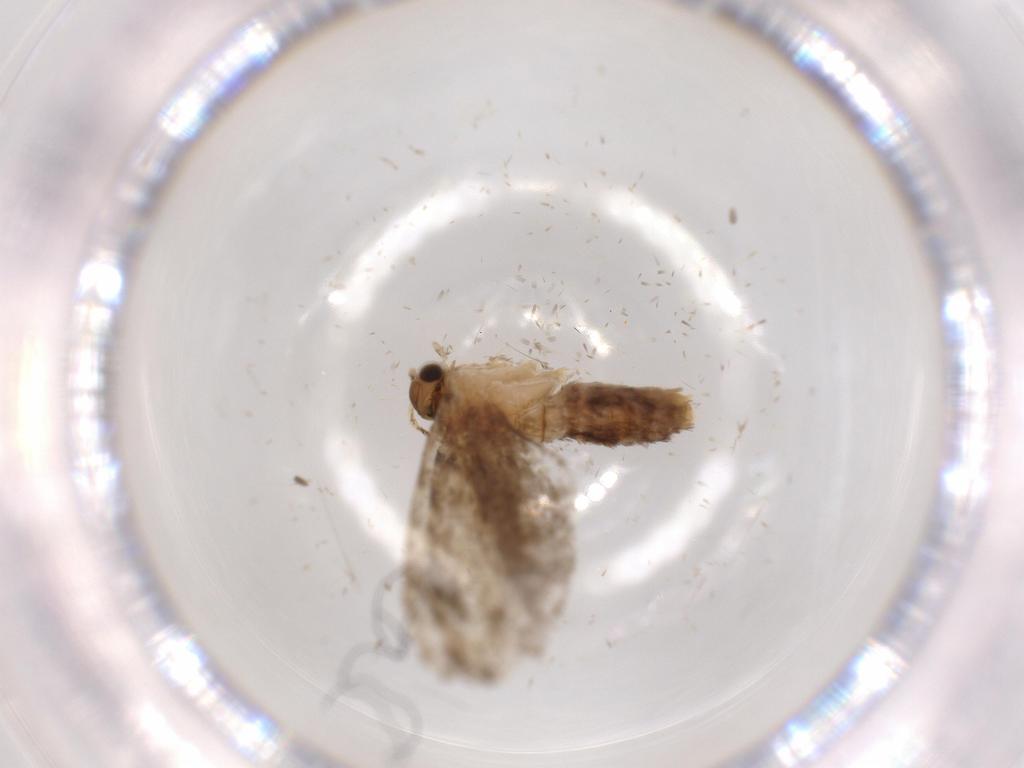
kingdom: Animalia
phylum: Arthropoda
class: Insecta
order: Lepidoptera
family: Tineidae
